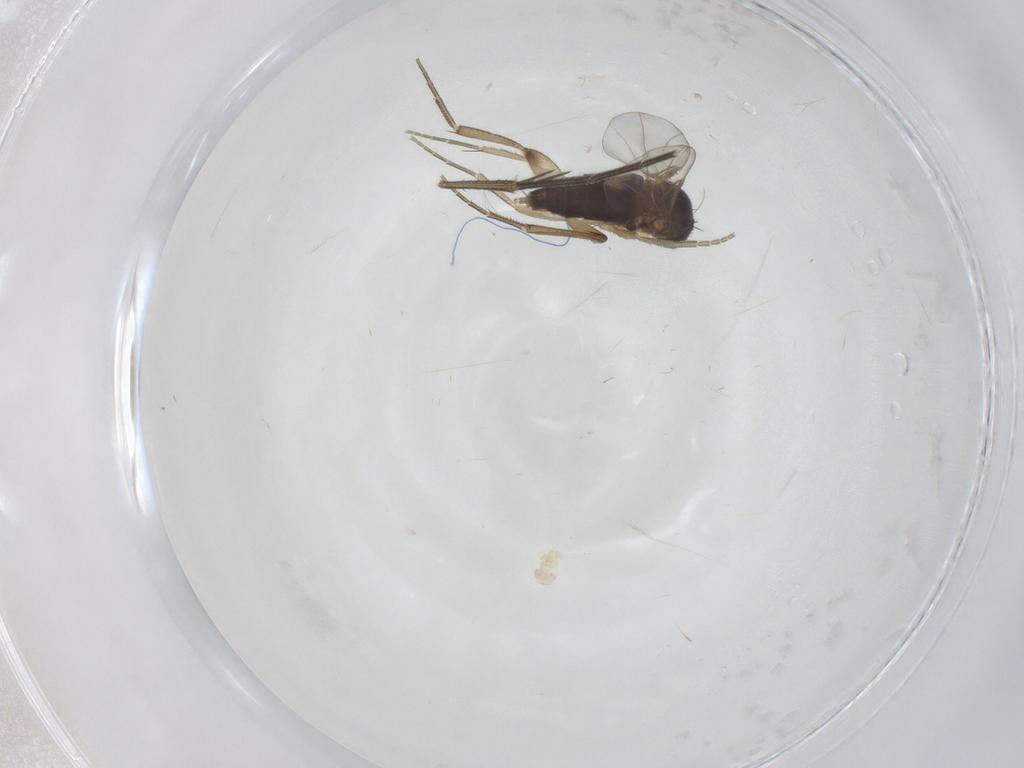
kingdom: Animalia
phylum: Arthropoda
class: Insecta
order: Diptera
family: Phoridae
